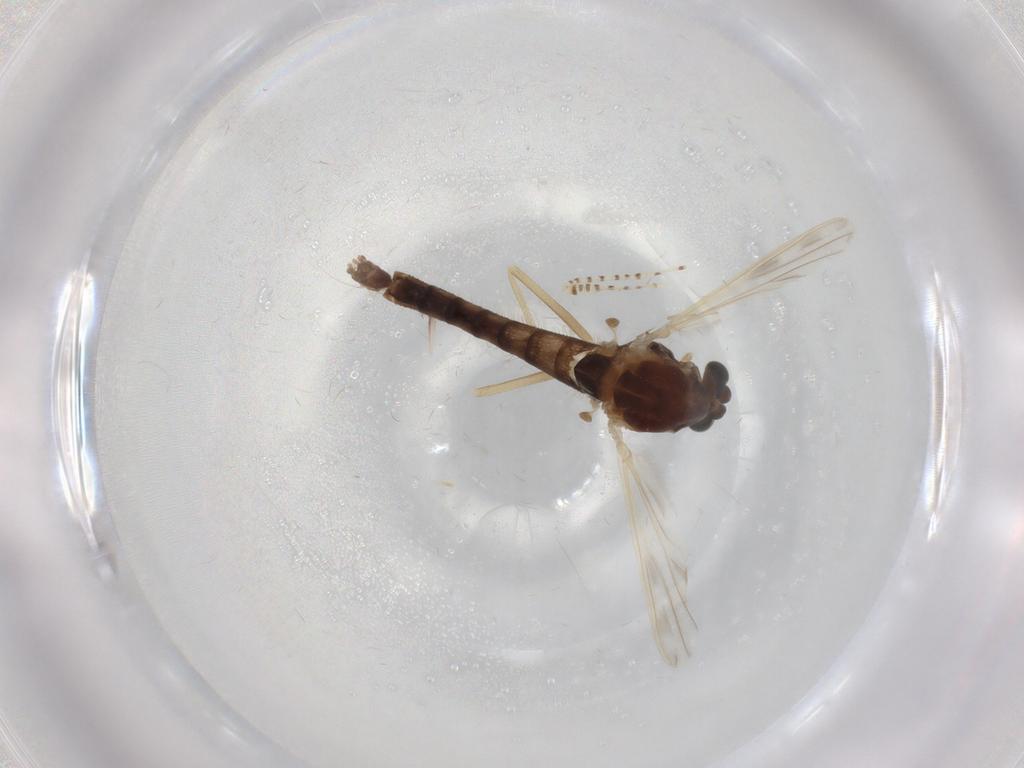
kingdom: Animalia
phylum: Arthropoda
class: Insecta
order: Diptera
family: Chironomidae
